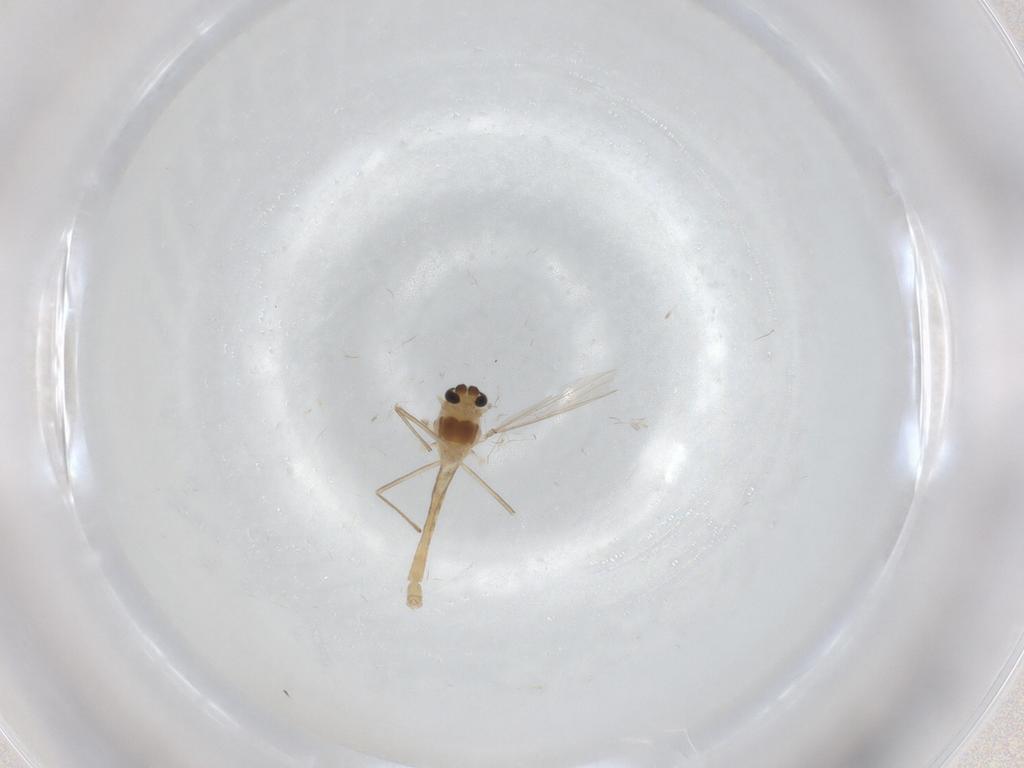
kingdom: Animalia
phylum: Arthropoda
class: Insecta
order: Diptera
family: Chironomidae
